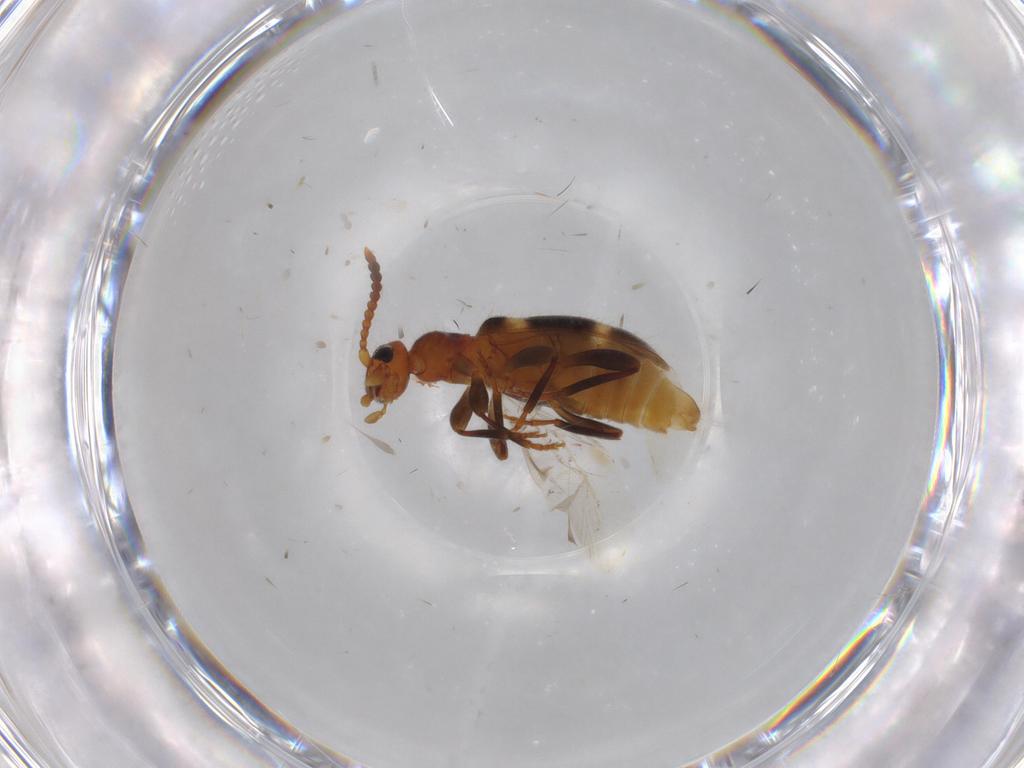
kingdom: Animalia
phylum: Arthropoda
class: Insecta
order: Coleoptera
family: Anthicidae
